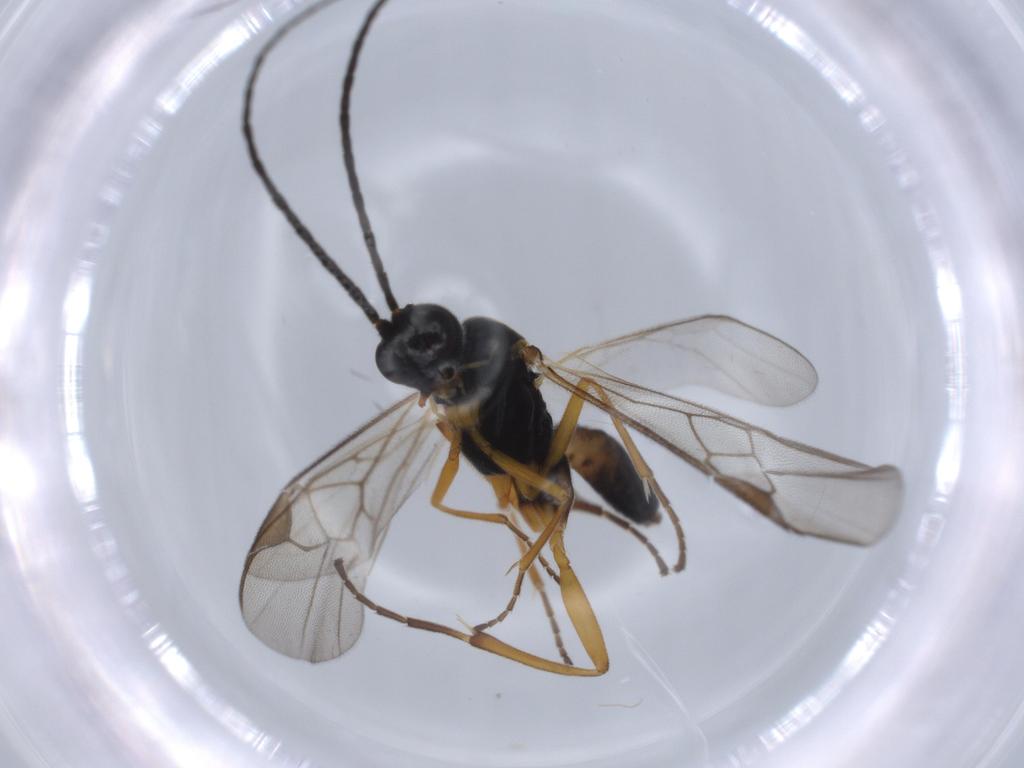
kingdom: Animalia
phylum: Arthropoda
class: Insecta
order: Hymenoptera
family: Braconidae
